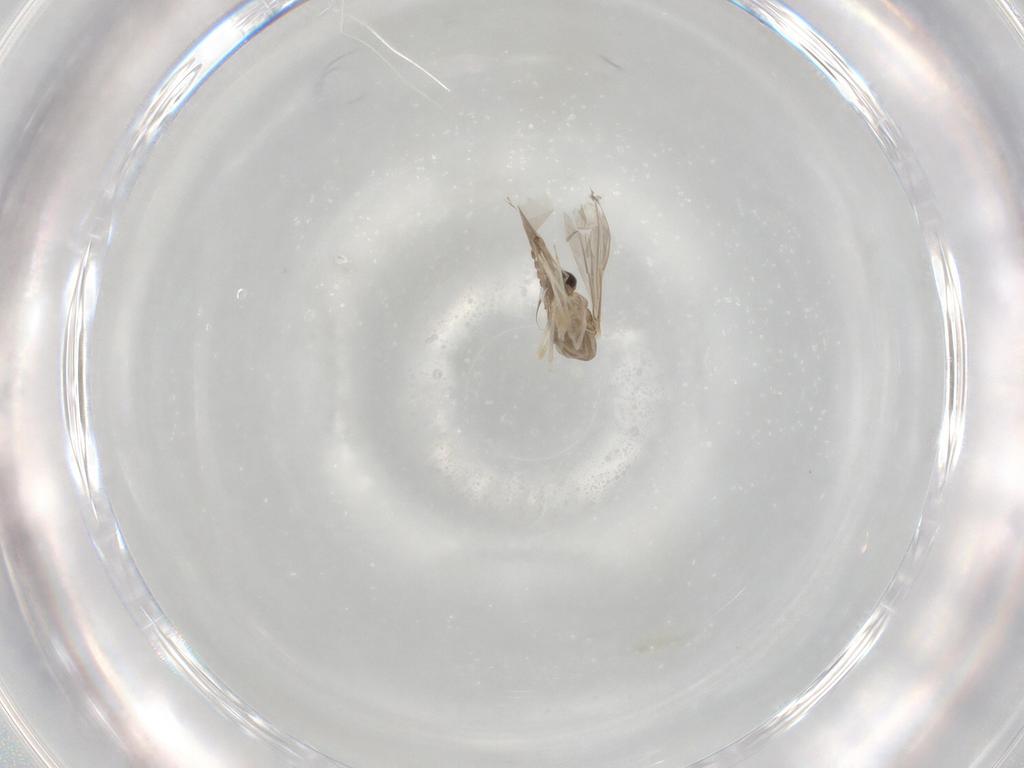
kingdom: Animalia
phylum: Arthropoda
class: Insecta
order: Diptera
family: Cecidomyiidae
